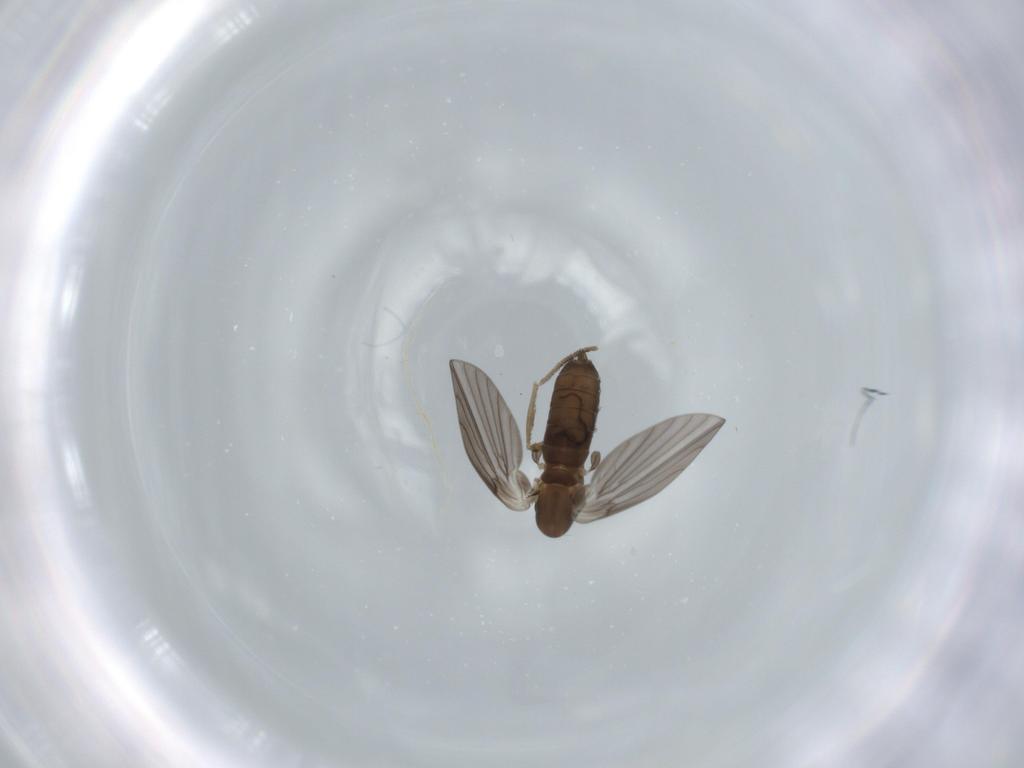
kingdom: Animalia
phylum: Arthropoda
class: Insecta
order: Diptera
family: Psychodidae
